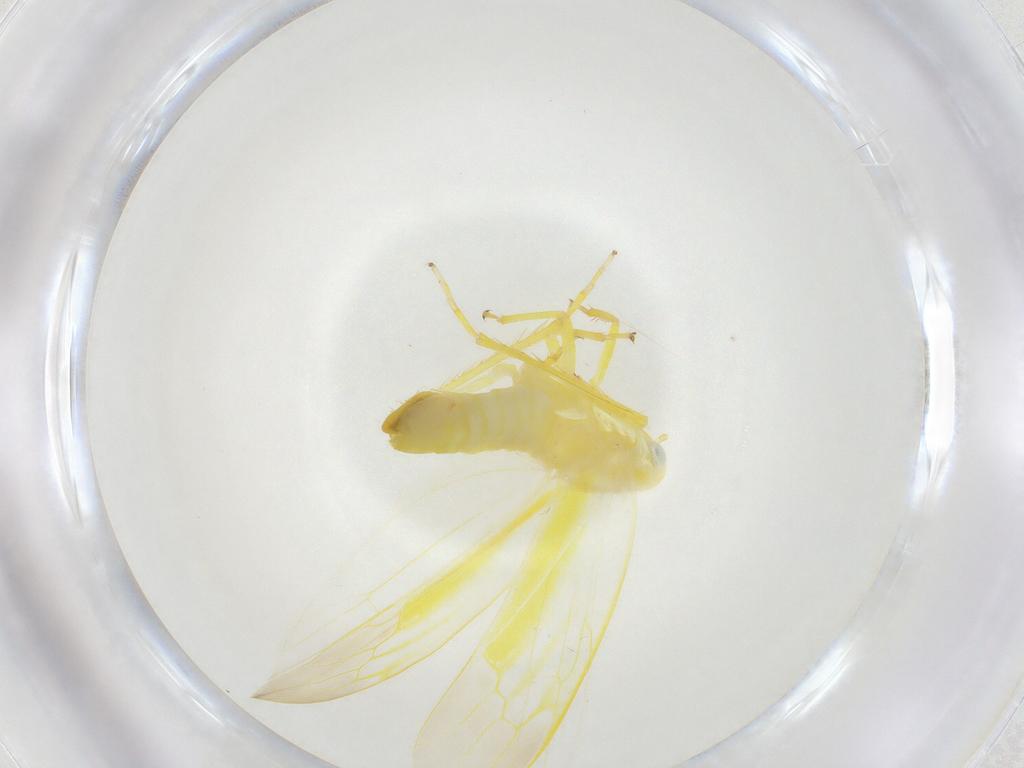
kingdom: Animalia
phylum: Arthropoda
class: Insecta
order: Hemiptera
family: Cicadellidae
